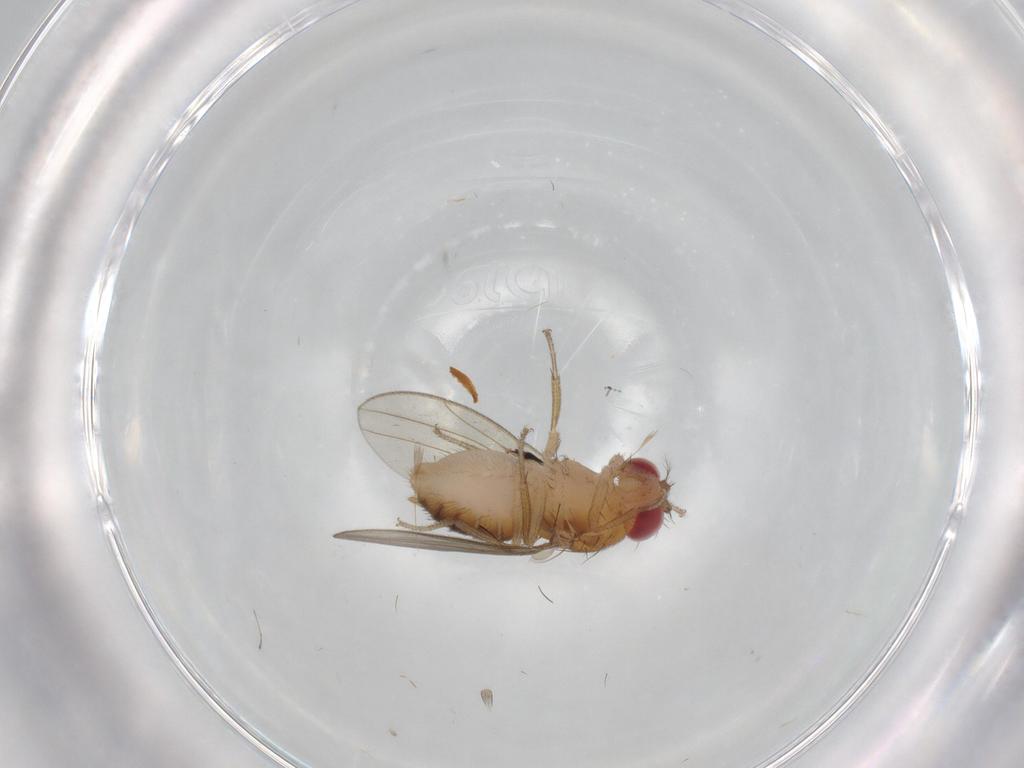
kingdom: Animalia
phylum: Arthropoda
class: Insecta
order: Diptera
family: Drosophilidae
